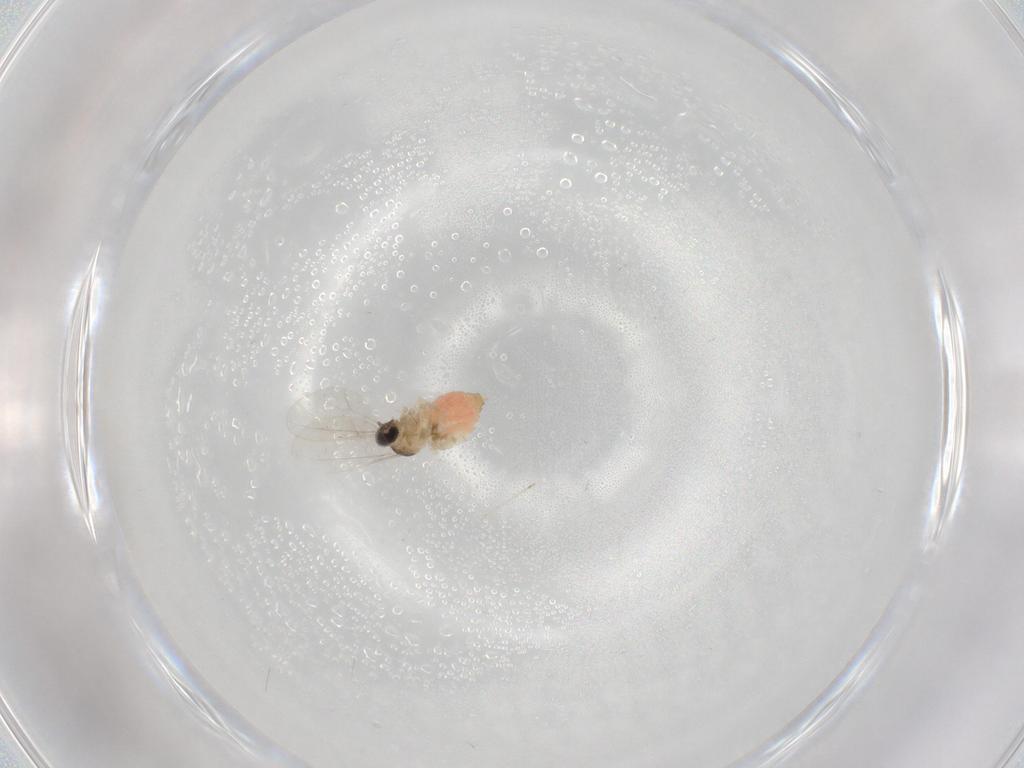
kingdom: Animalia
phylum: Arthropoda
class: Insecta
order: Diptera
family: Cecidomyiidae
